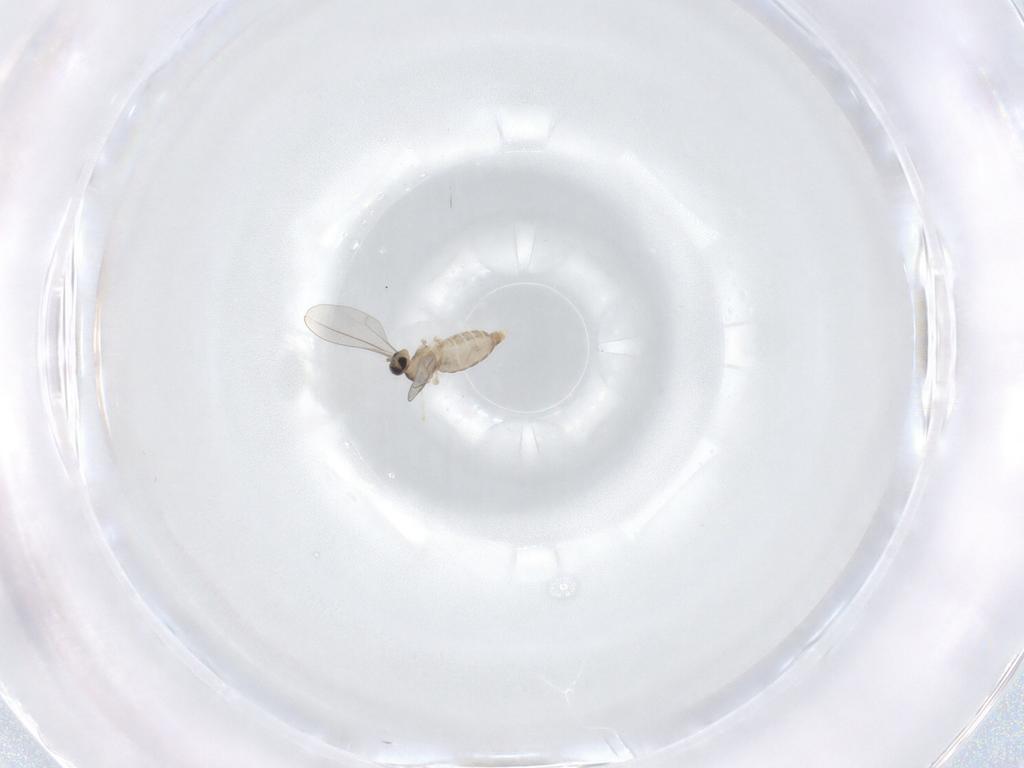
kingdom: Animalia
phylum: Arthropoda
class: Insecta
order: Diptera
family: Cecidomyiidae
